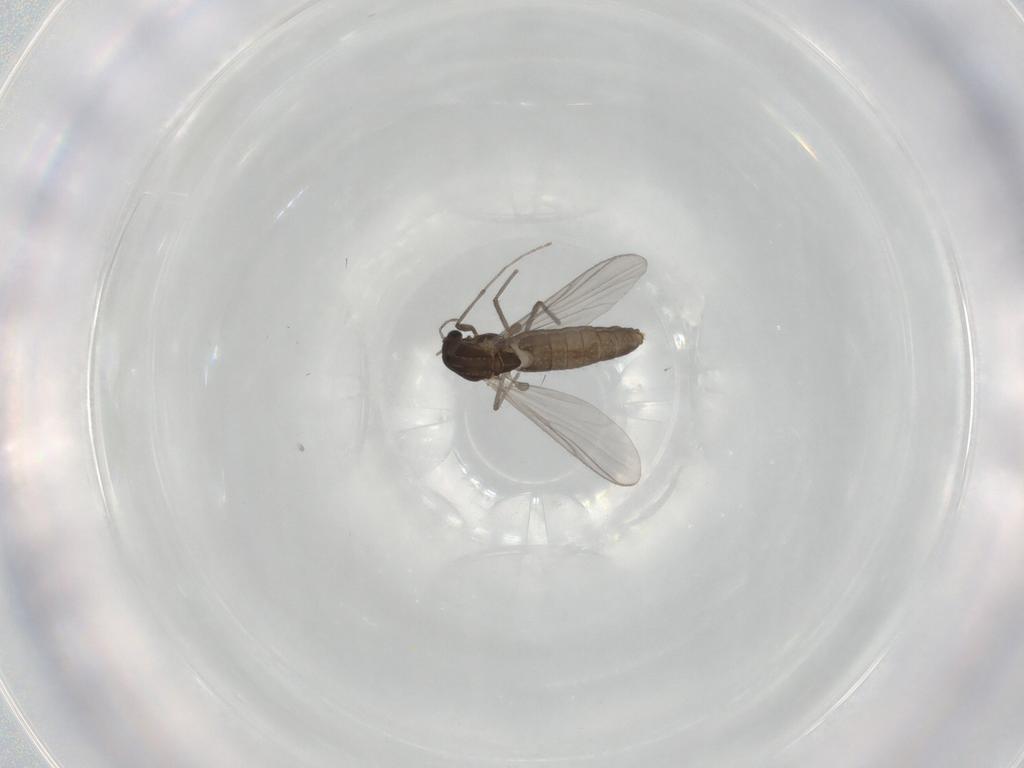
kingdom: Animalia
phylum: Arthropoda
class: Insecta
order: Diptera
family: Chironomidae
